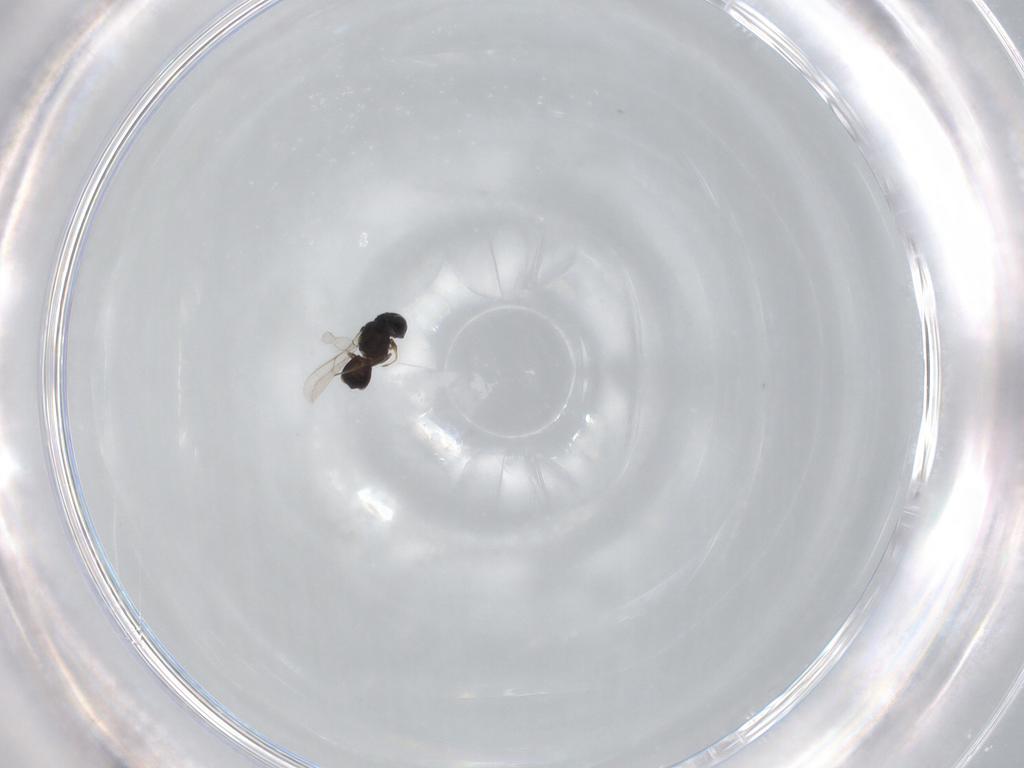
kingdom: Animalia
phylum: Arthropoda
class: Insecta
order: Hymenoptera
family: Scelionidae
